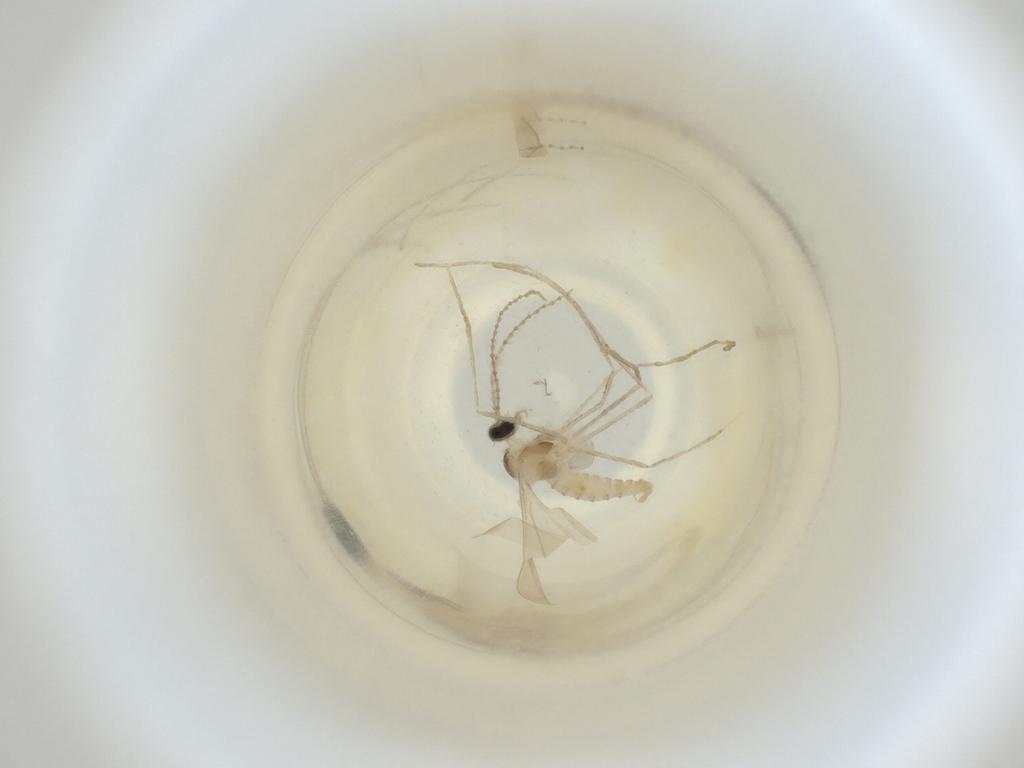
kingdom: Animalia
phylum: Arthropoda
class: Insecta
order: Diptera
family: Cecidomyiidae
